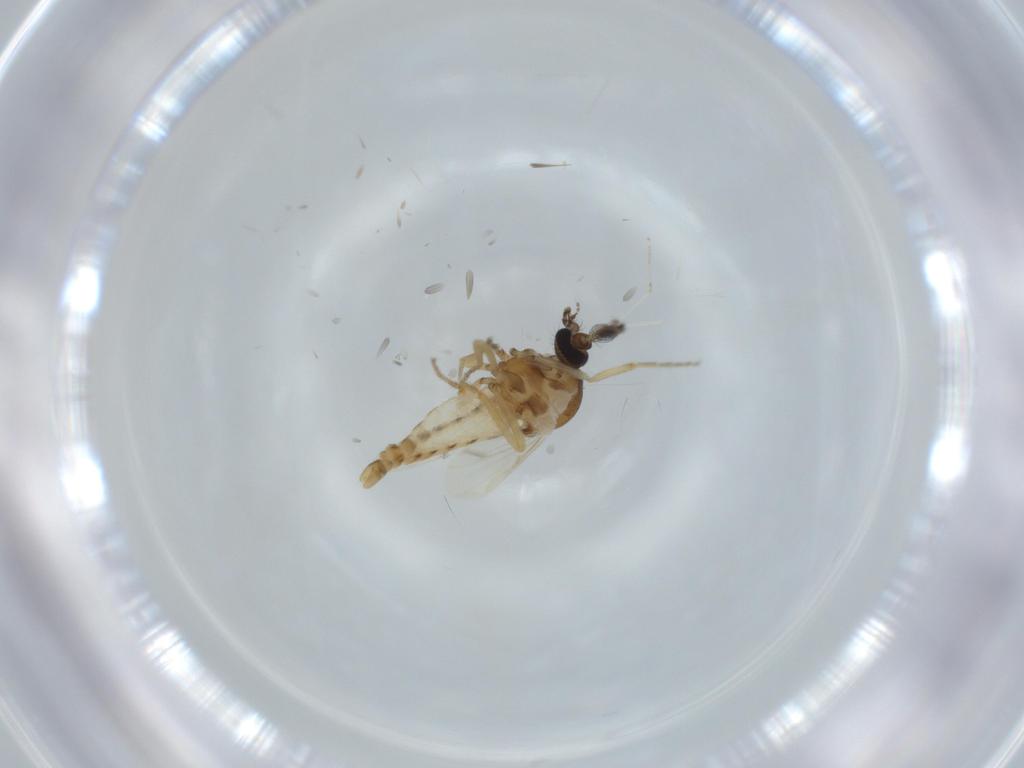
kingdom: Animalia
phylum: Arthropoda
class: Insecta
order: Diptera
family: Ceratopogonidae
